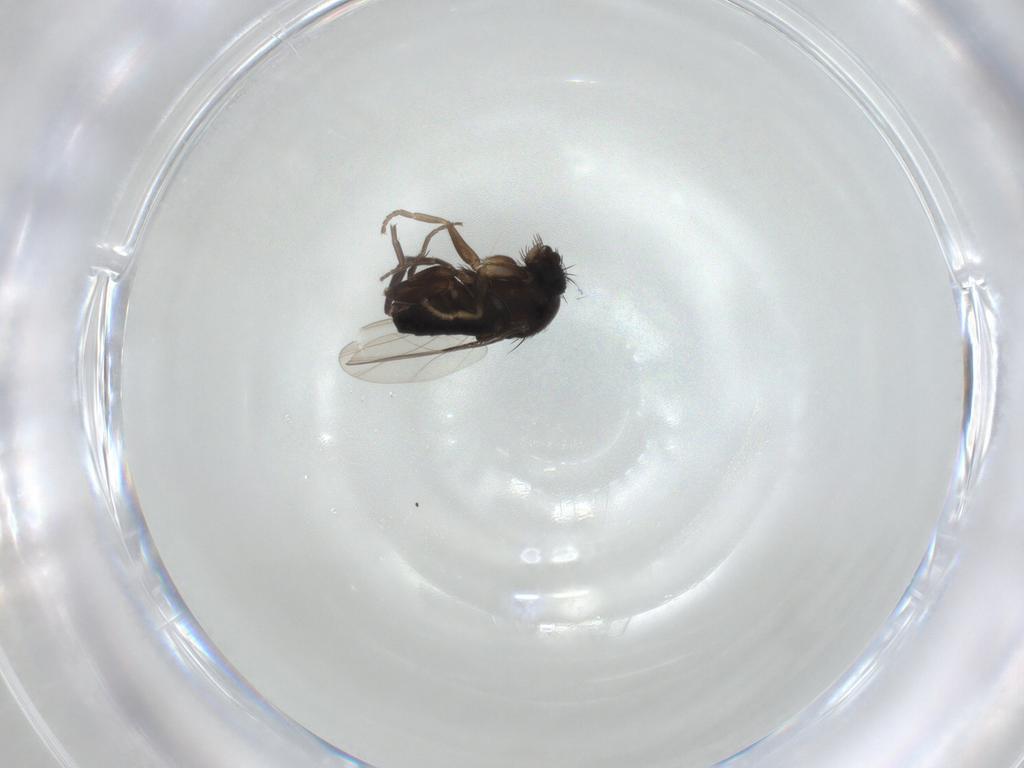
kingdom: Animalia
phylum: Arthropoda
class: Insecta
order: Diptera
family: Phoridae
